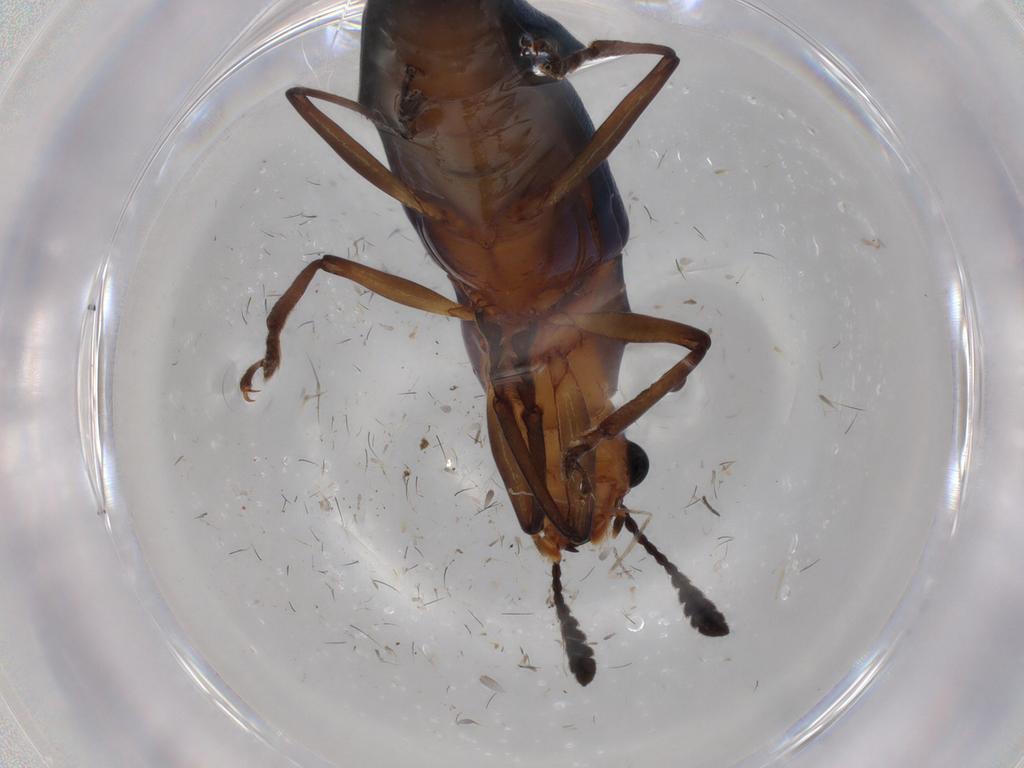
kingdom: Animalia
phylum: Arthropoda
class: Insecta
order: Coleoptera
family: Erotylidae
